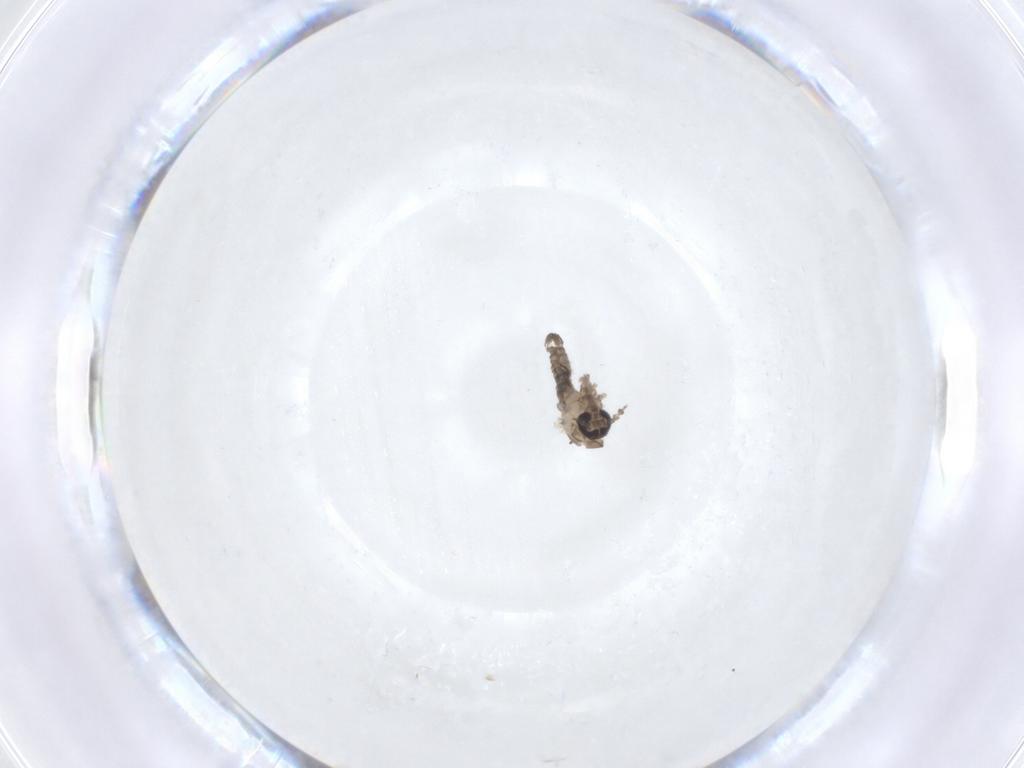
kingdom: Animalia
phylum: Arthropoda
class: Insecta
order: Diptera
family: Psychodidae
